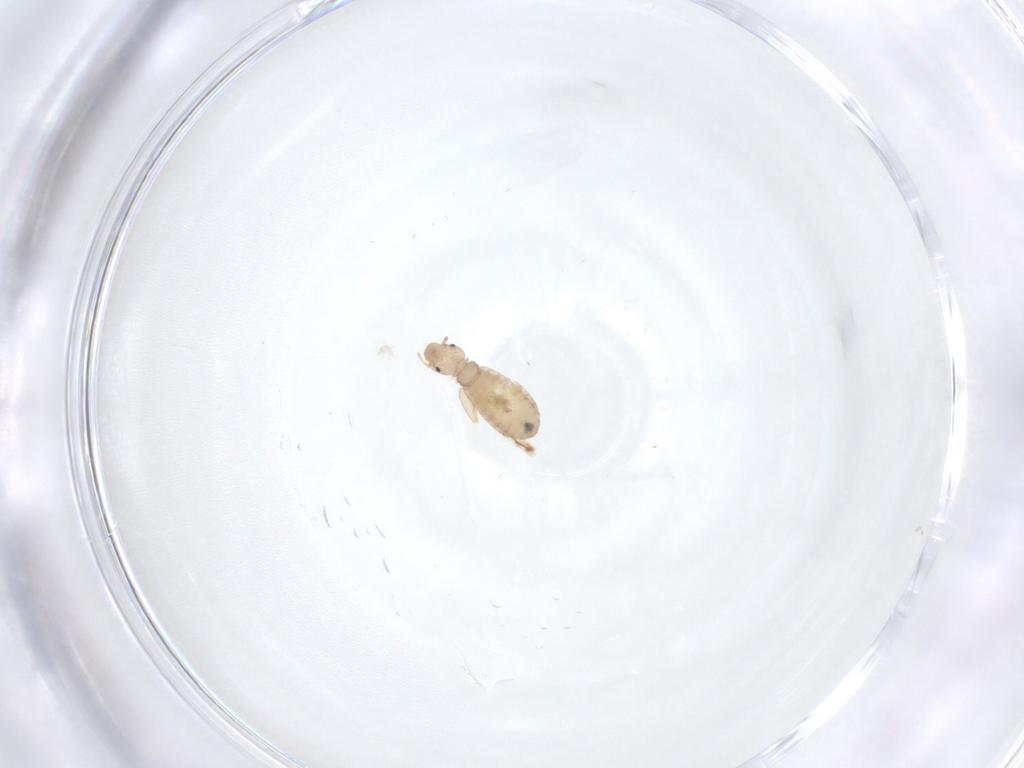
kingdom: Animalia
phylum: Arthropoda
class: Insecta
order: Psocodea
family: Liposcelididae
